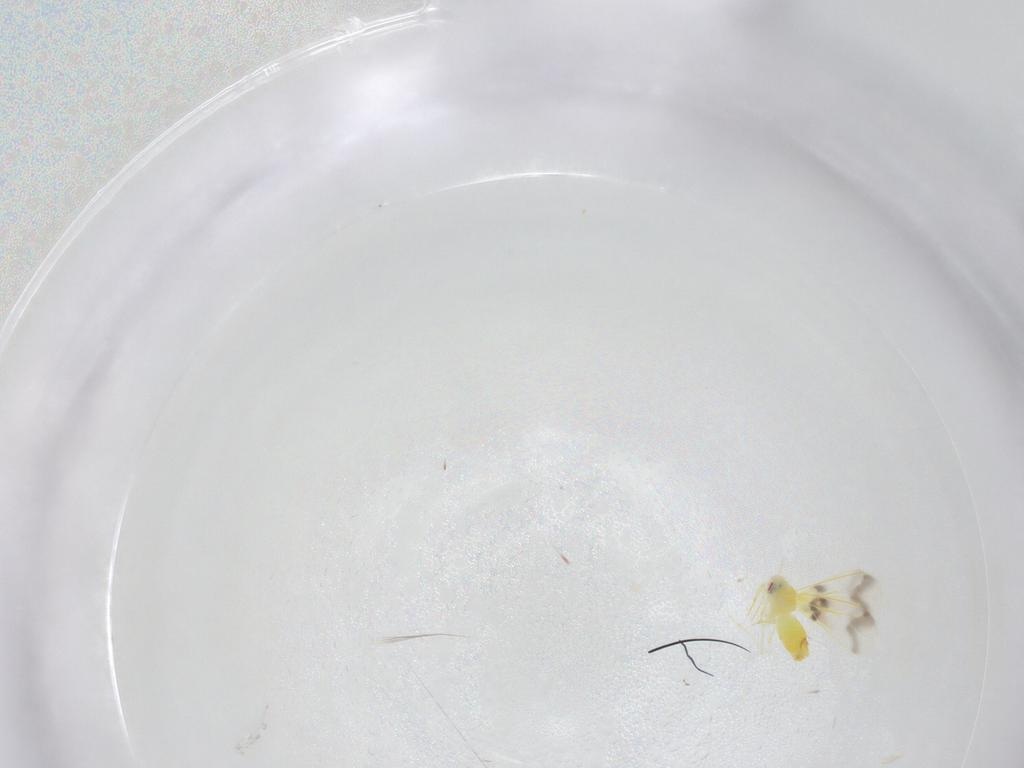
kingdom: Animalia
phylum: Arthropoda
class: Insecta
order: Hemiptera
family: Aleyrodidae
